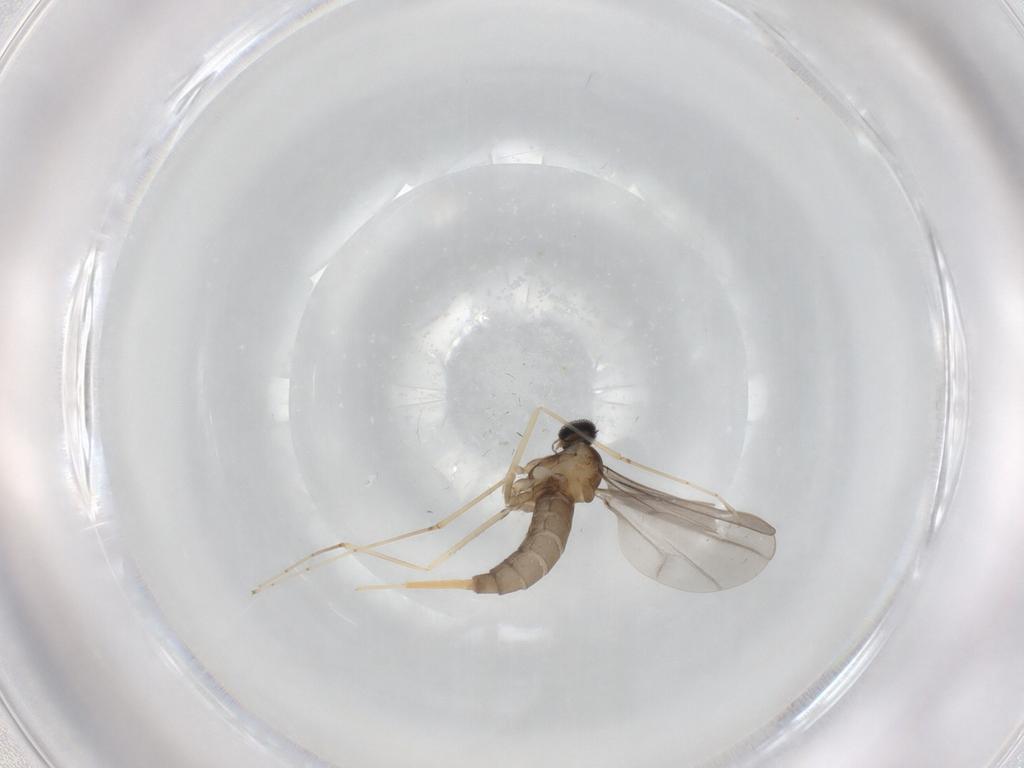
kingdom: Animalia
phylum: Arthropoda
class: Insecta
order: Diptera
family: Cecidomyiidae
